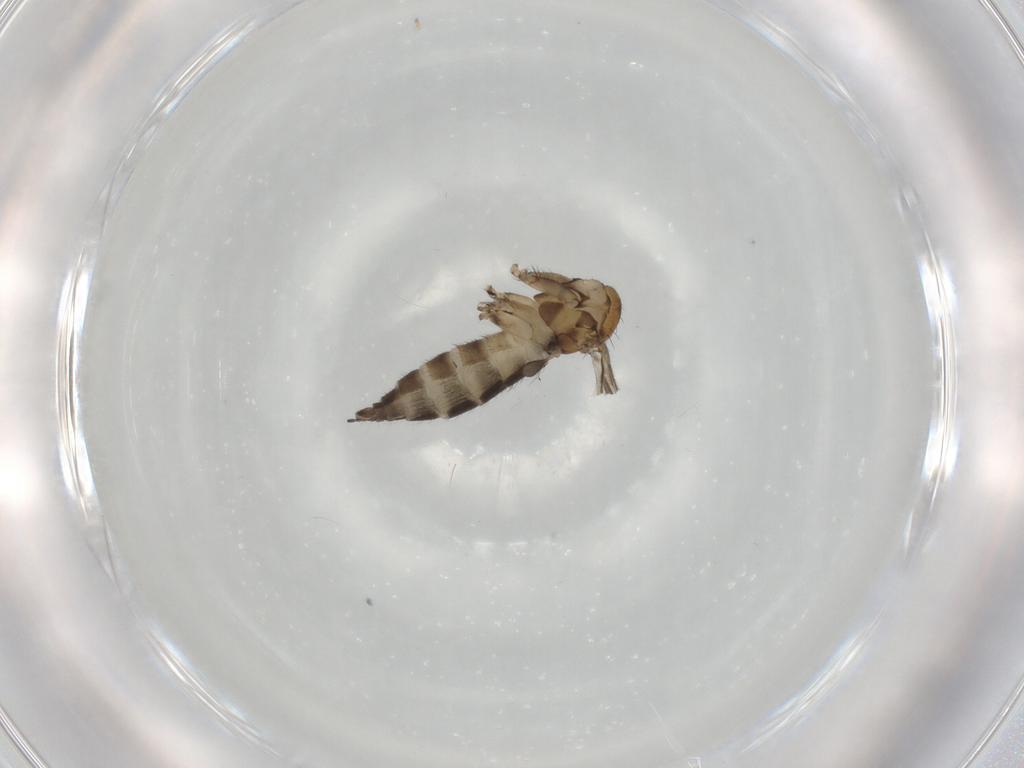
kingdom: Animalia
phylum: Arthropoda
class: Insecta
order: Diptera
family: Sciaridae
